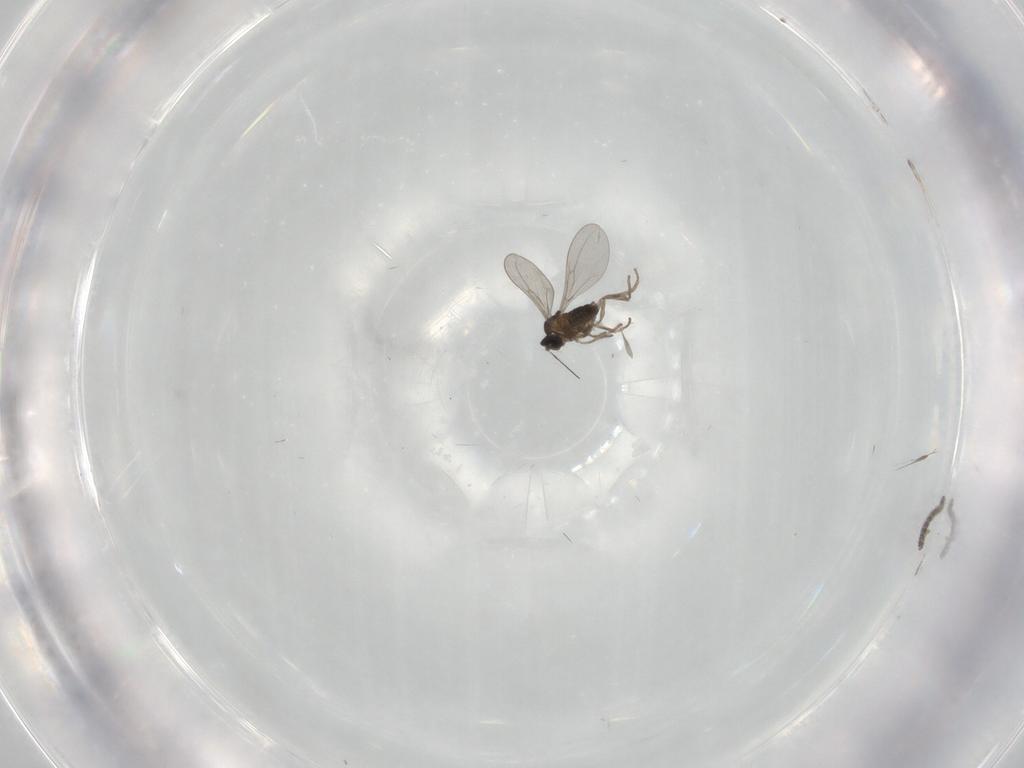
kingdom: Animalia
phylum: Arthropoda
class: Insecta
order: Diptera
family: Cecidomyiidae
